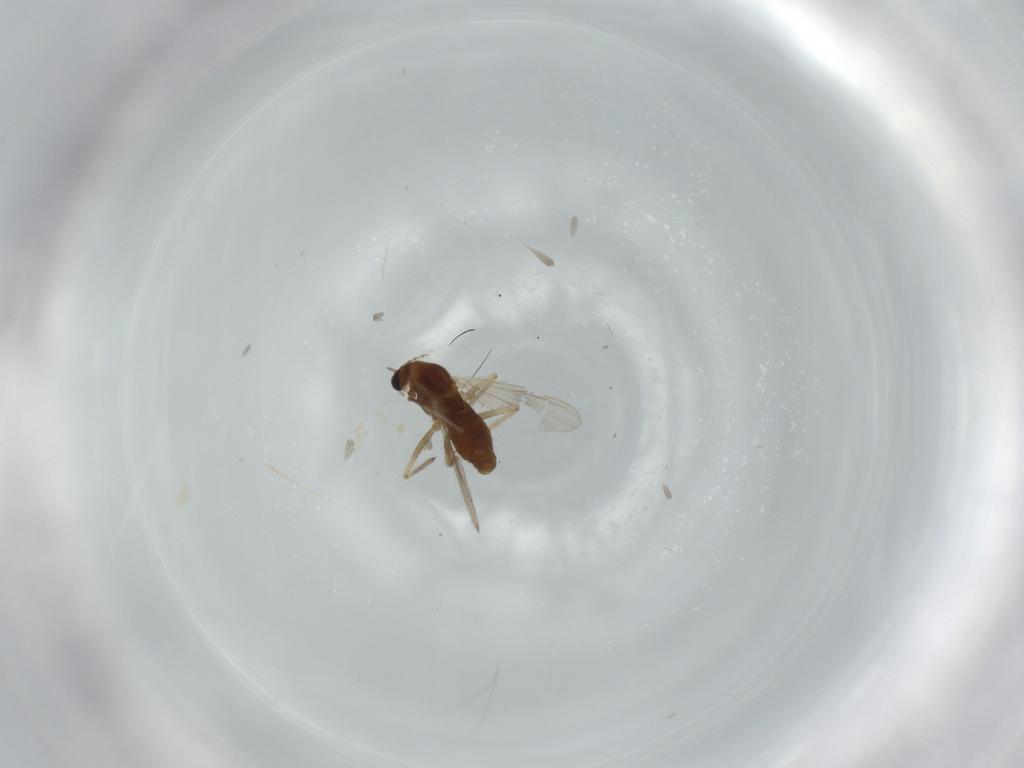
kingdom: Animalia
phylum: Arthropoda
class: Insecta
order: Diptera
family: Chironomidae
